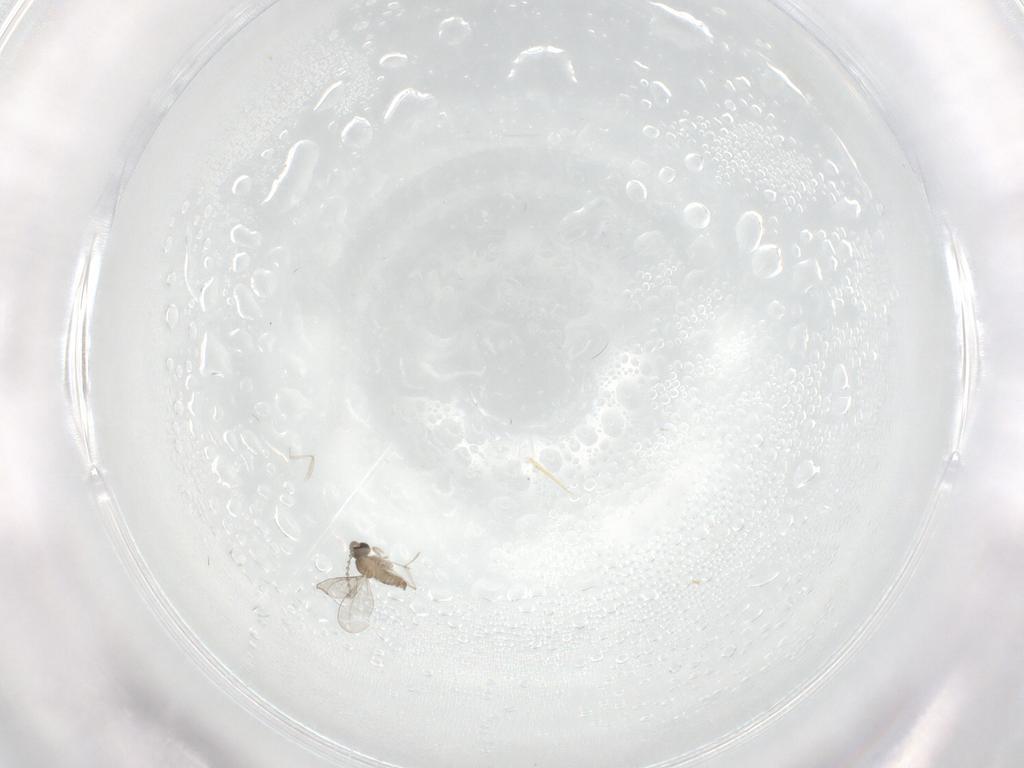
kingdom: Animalia
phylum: Arthropoda
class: Insecta
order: Diptera
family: Cecidomyiidae
